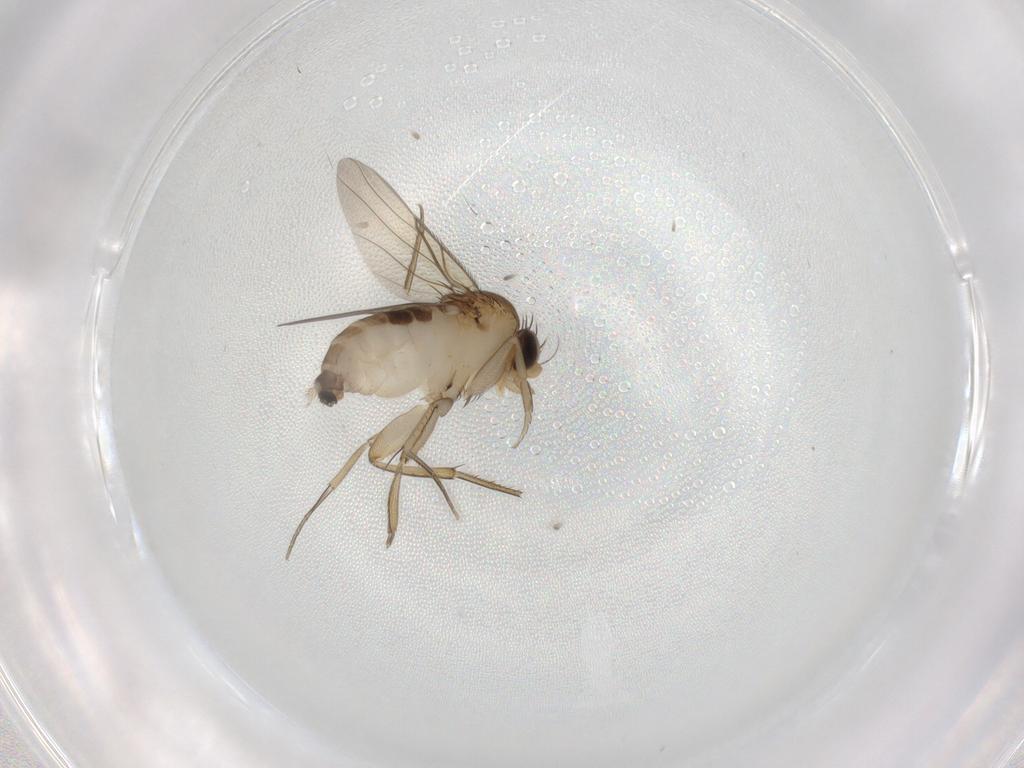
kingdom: Animalia
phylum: Arthropoda
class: Insecta
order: Diptera
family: Phoridae
